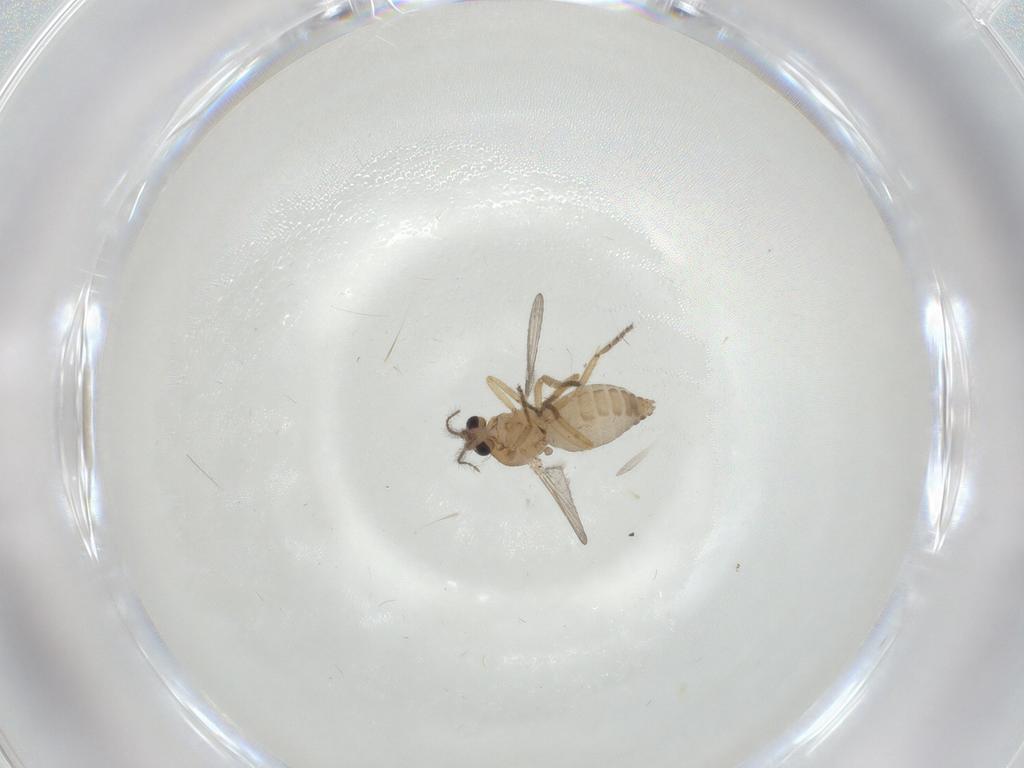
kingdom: Animalia
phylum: Arthropoda
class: Insecta
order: Diptera
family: Ceratopogonidae
